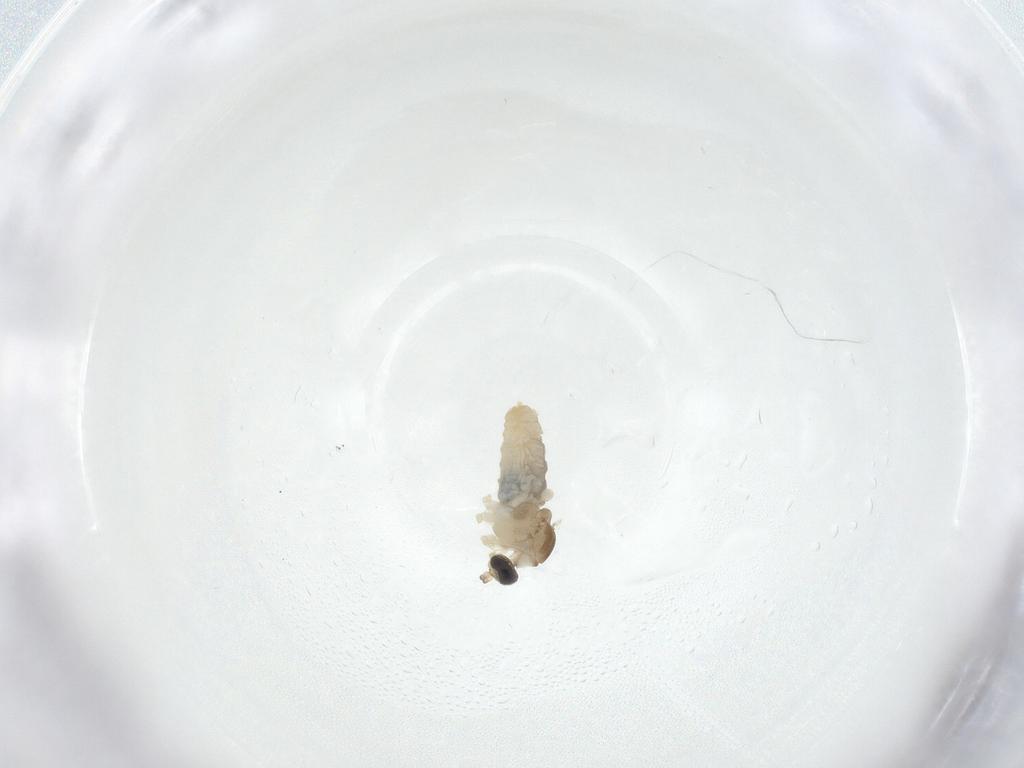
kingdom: Animalia
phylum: Arthropoda
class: Insecta
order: Diptera
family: Cecidomyiidae
